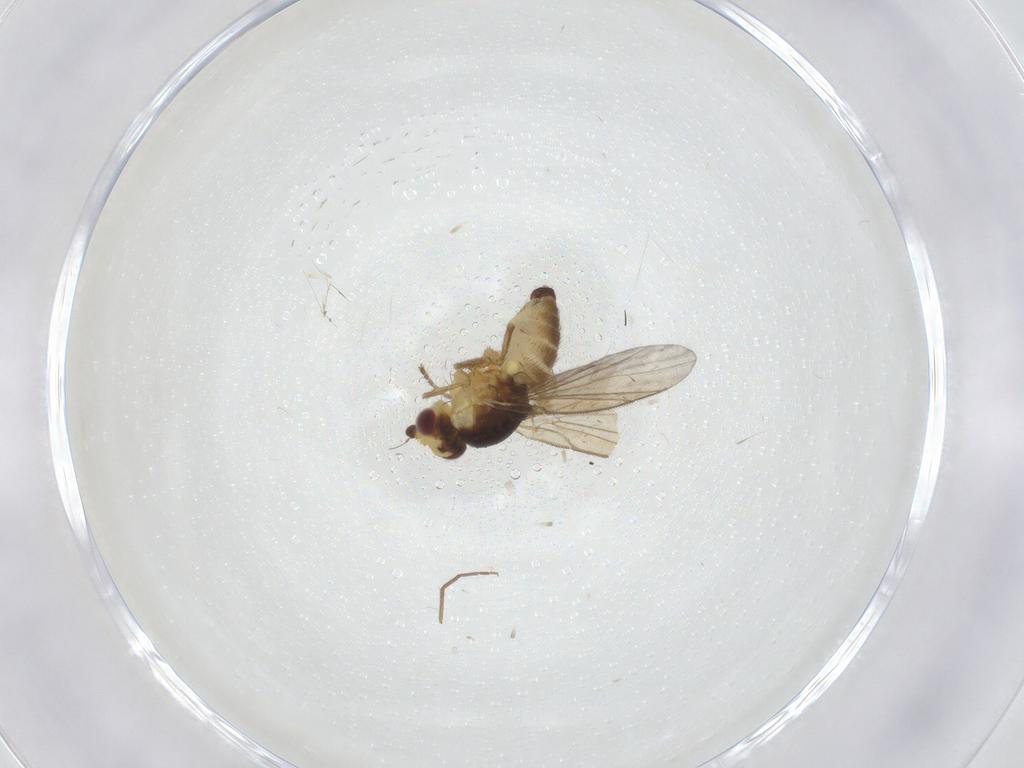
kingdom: Animalia
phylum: Arthropoda
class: Insecta
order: Diptera
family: Agromyzidae
